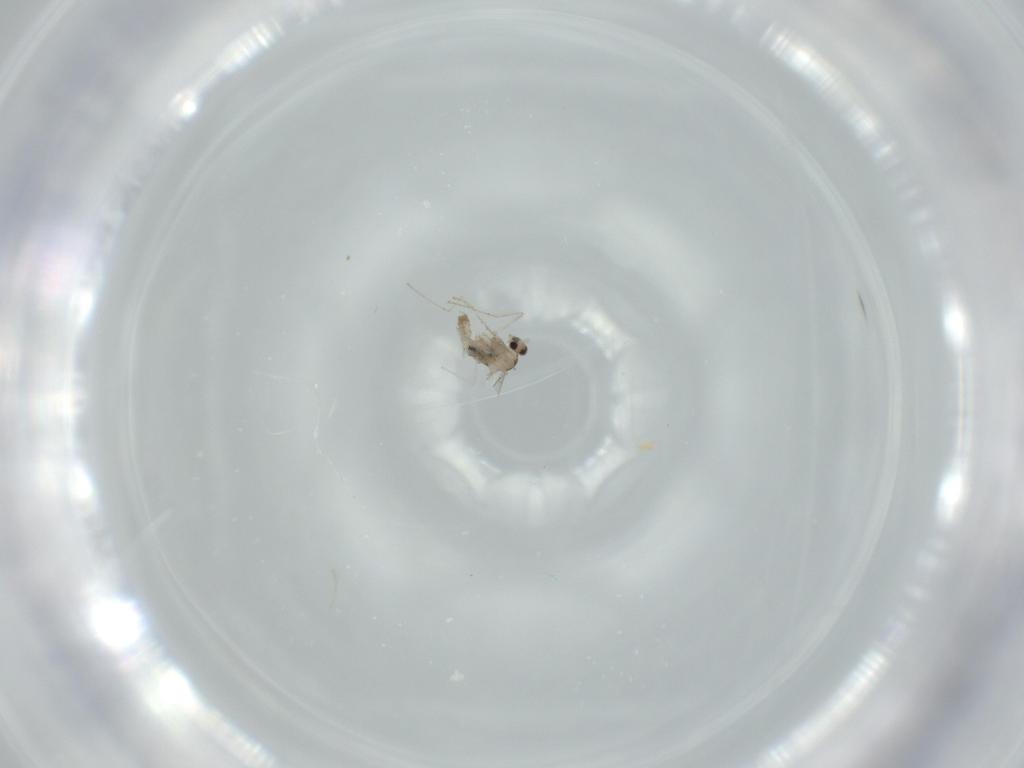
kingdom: Animalia
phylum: Arthropoda
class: Insecta
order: Diptera
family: Cecidomyiidae
